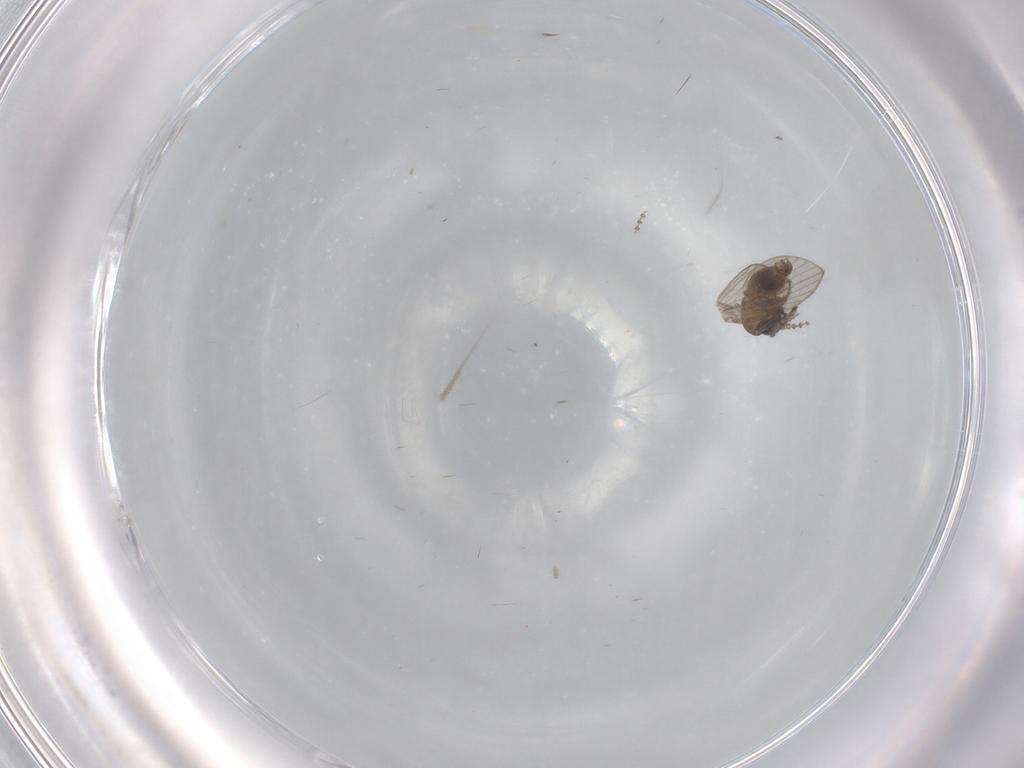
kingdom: Animalia
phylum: Arthropoda
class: Insecta
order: Diptera
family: Psychodidae
